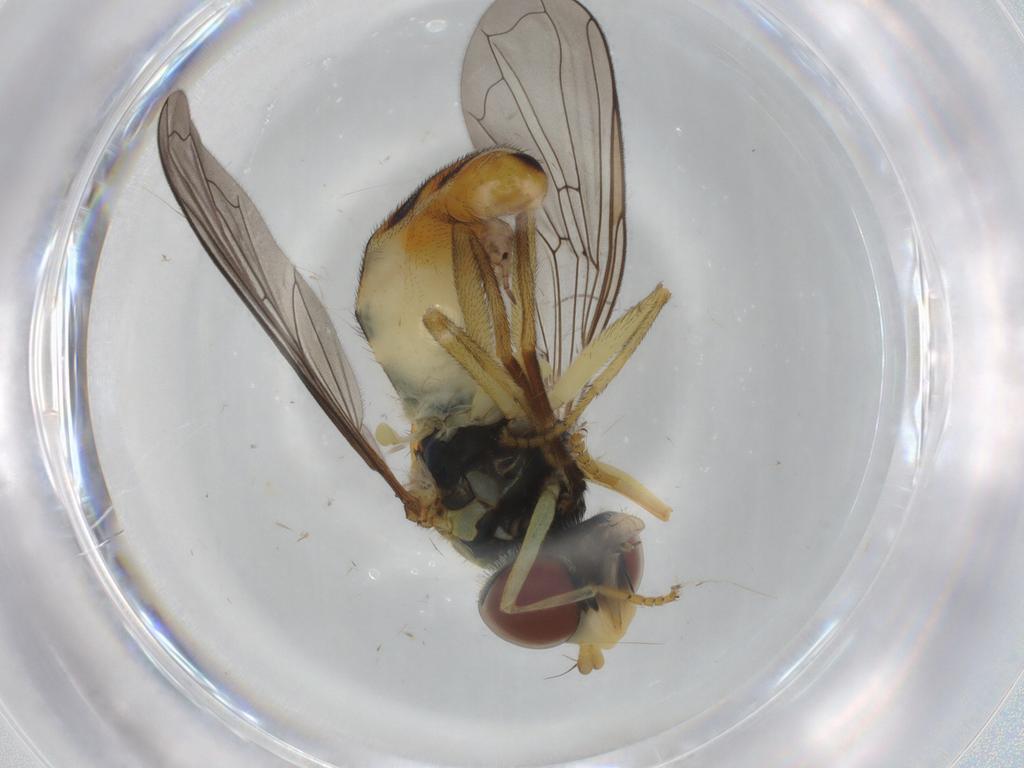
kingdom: Animalia
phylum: Arthropoda
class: Insecta
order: Diptera
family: Syrphidae
